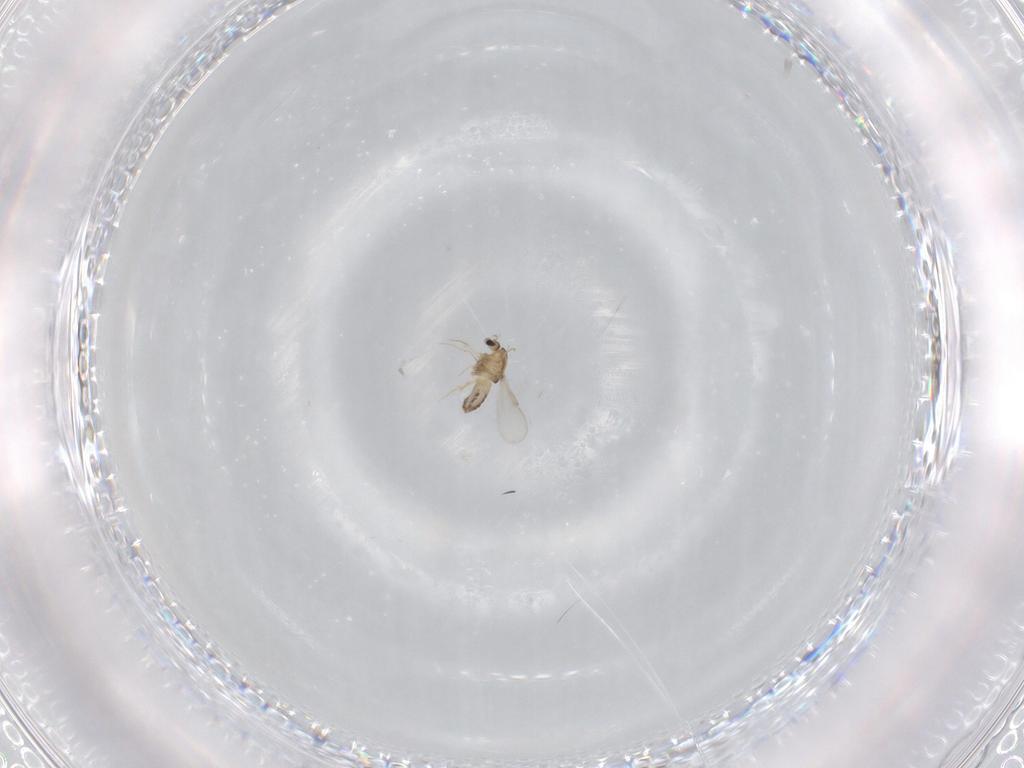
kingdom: Animalia
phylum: Arthropoda
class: Insecta
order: Diptera
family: Chironomidae
